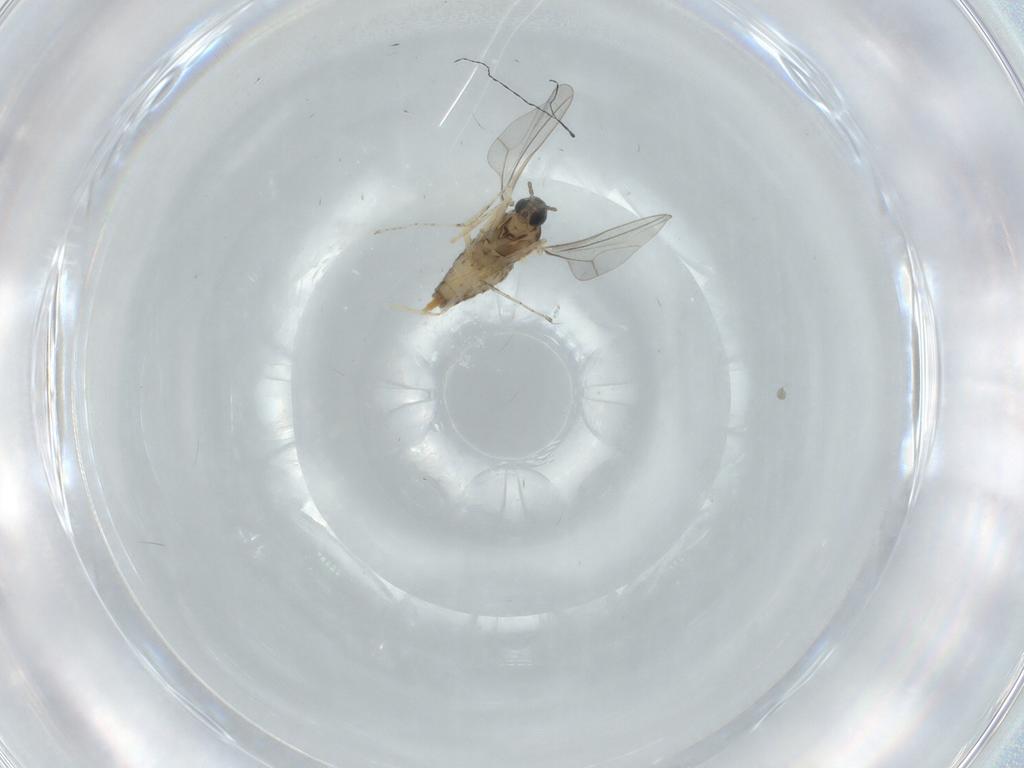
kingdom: Animalia
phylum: Arthropoda
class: Insecta
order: Diptera
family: Cecidomyiidae
